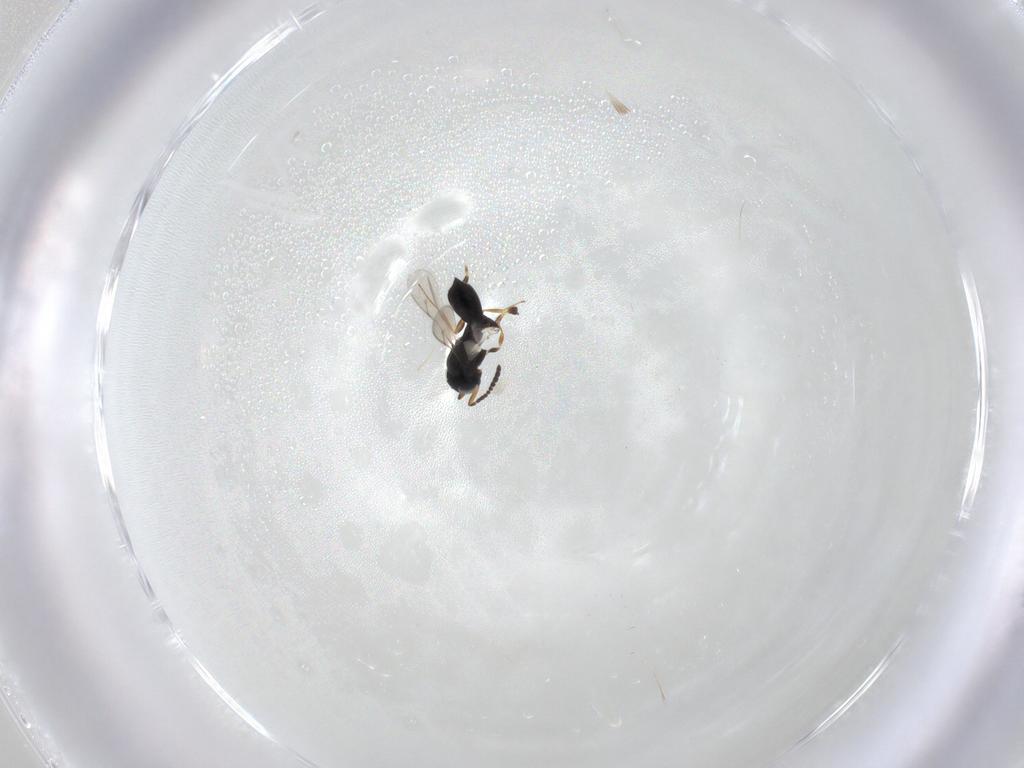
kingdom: Animalia
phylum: Arthropoda
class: Insecta
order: Hymenoptera
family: Scelionidae
